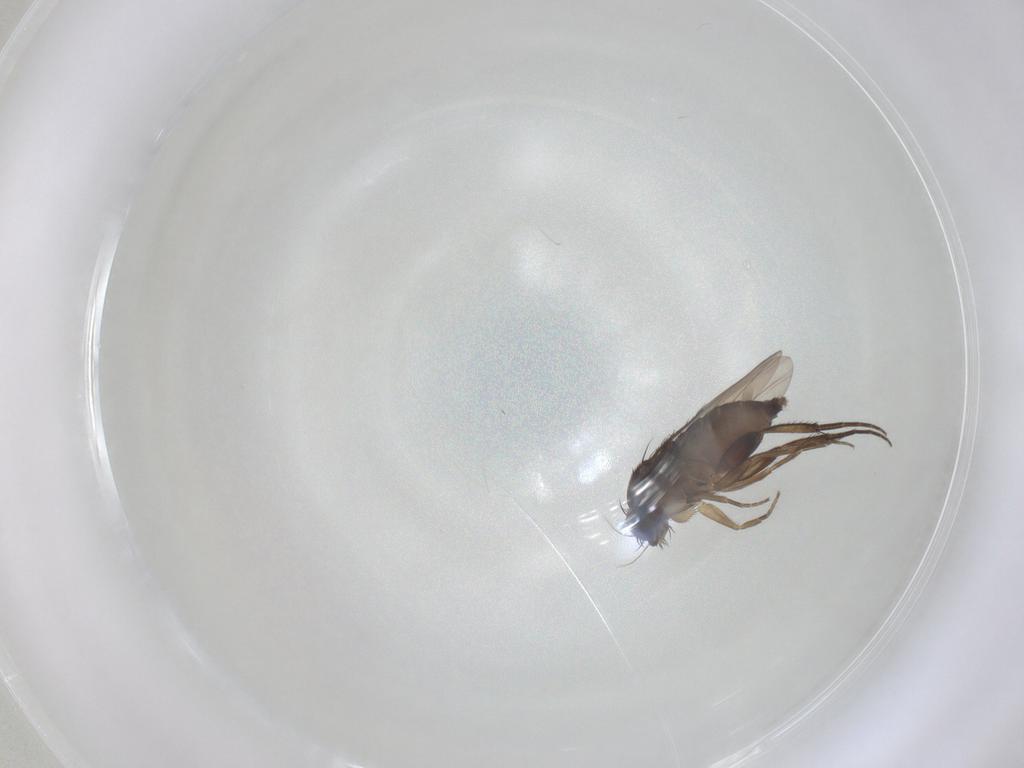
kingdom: Animalia
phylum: Arthropoda
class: Insecta
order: Diptera
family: Phoridae
